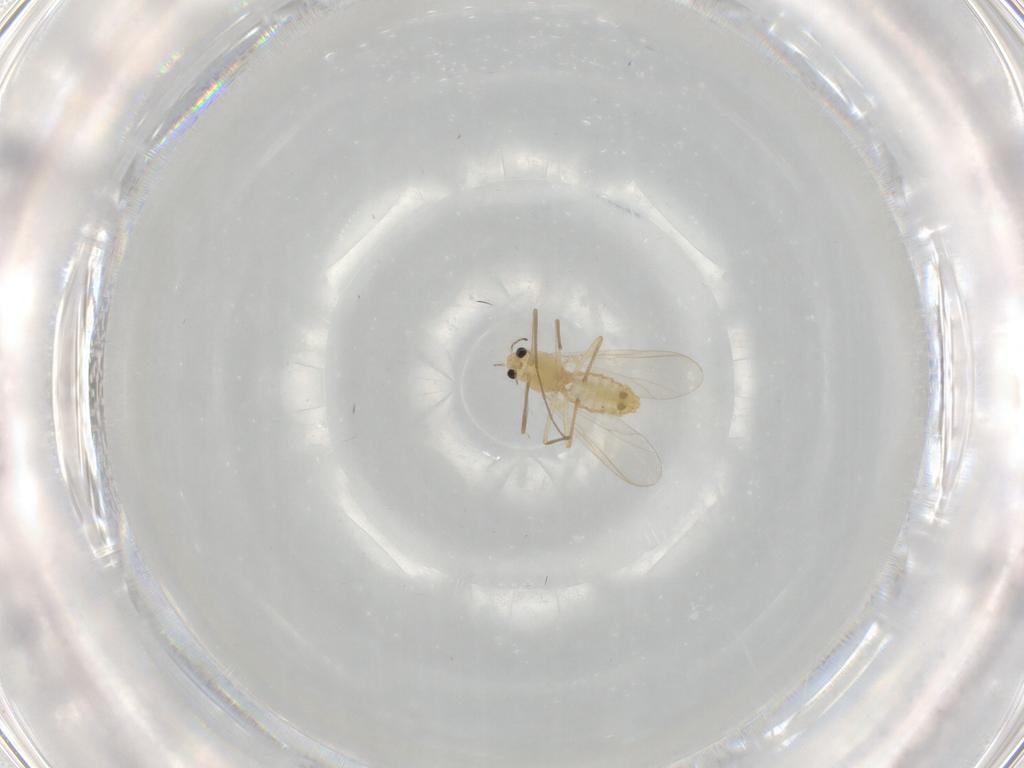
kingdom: Animalia
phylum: Arthropoda
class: Insecta
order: Diptera
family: Chironomidae
